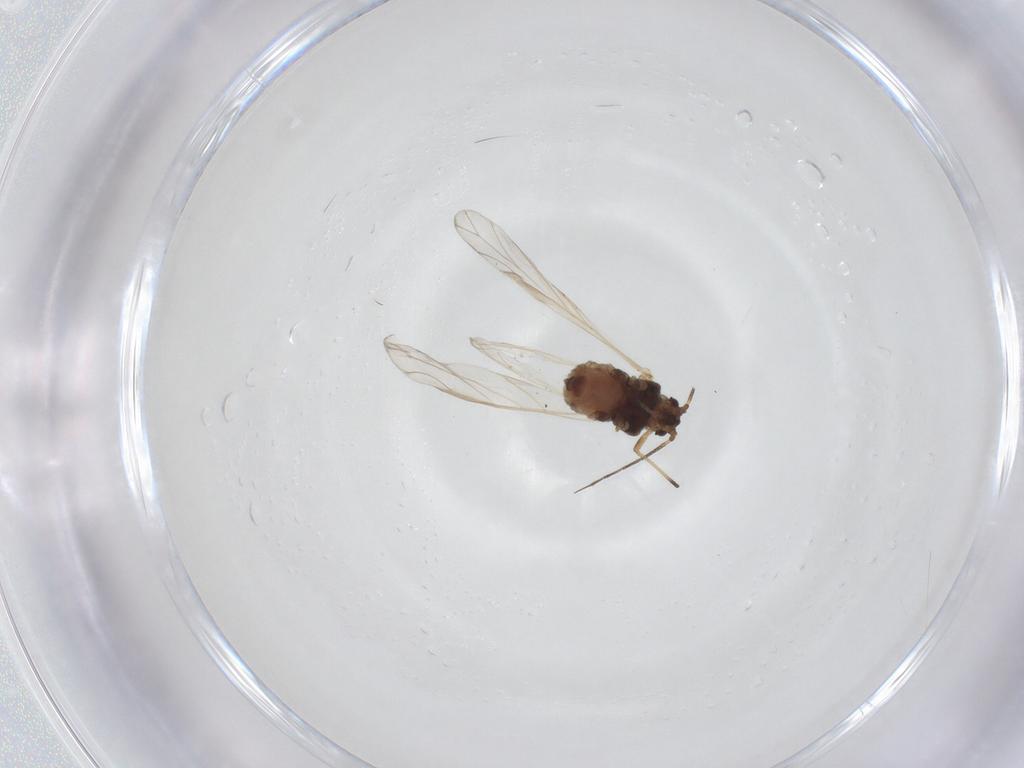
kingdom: Animalia
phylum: Arthropoda
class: Insecta
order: Hemiptera
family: Aphididae
